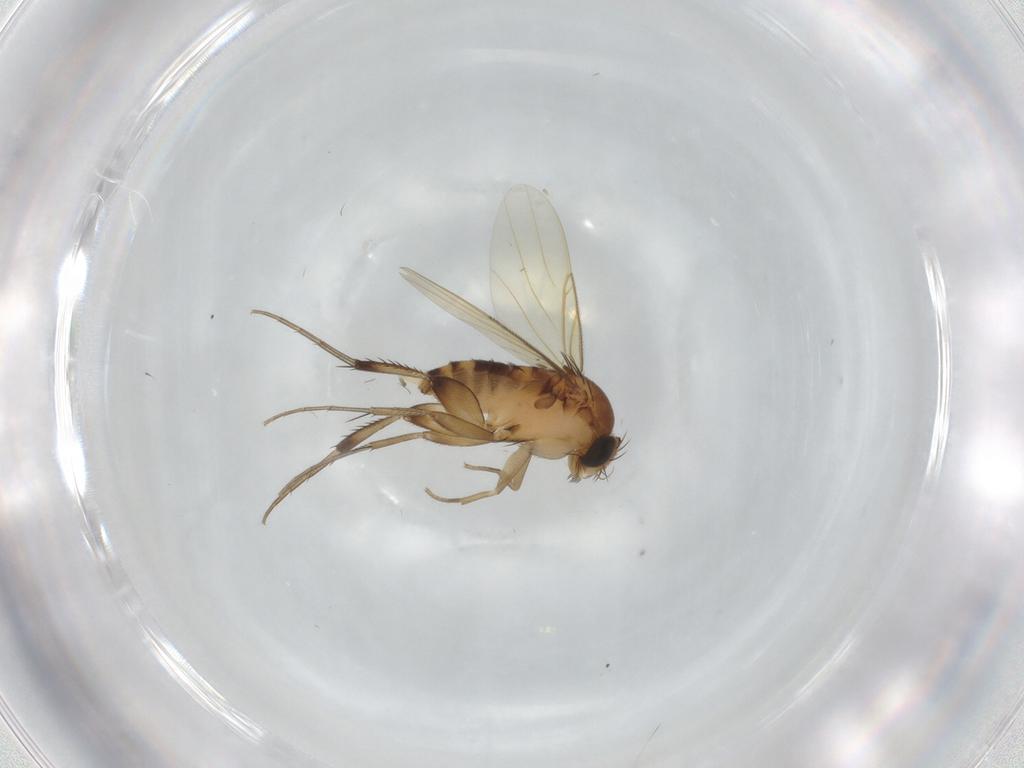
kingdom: Animalia
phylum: Arthropoda
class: Insecta
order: Diptera
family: Phoridae
